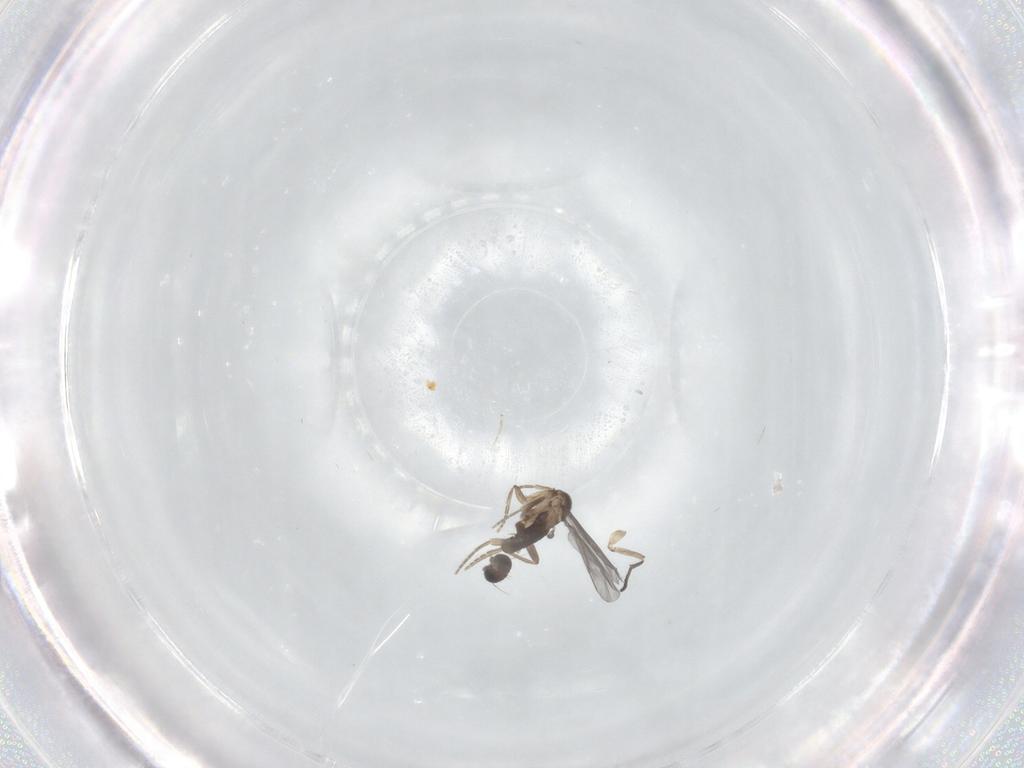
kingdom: Animalia
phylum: Arthropoda
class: Insecta
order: Diptera
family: Phoridae
